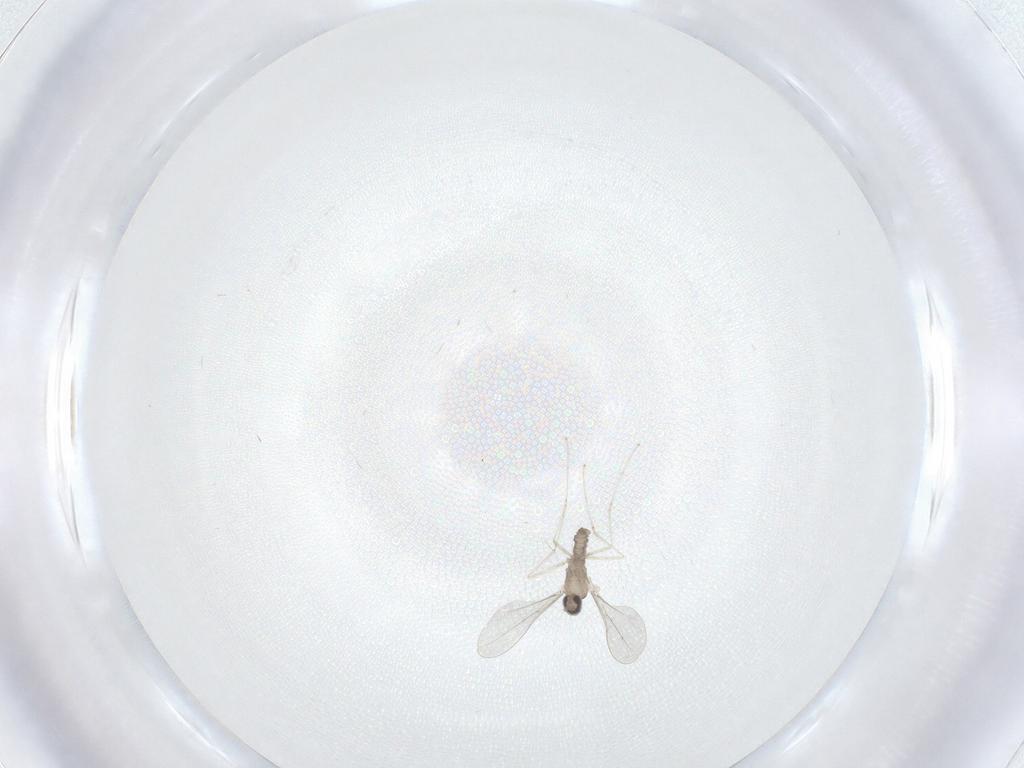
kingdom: Animalia
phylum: Arthropoda
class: Insecta
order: Diptera
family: Cecidomyiidae
